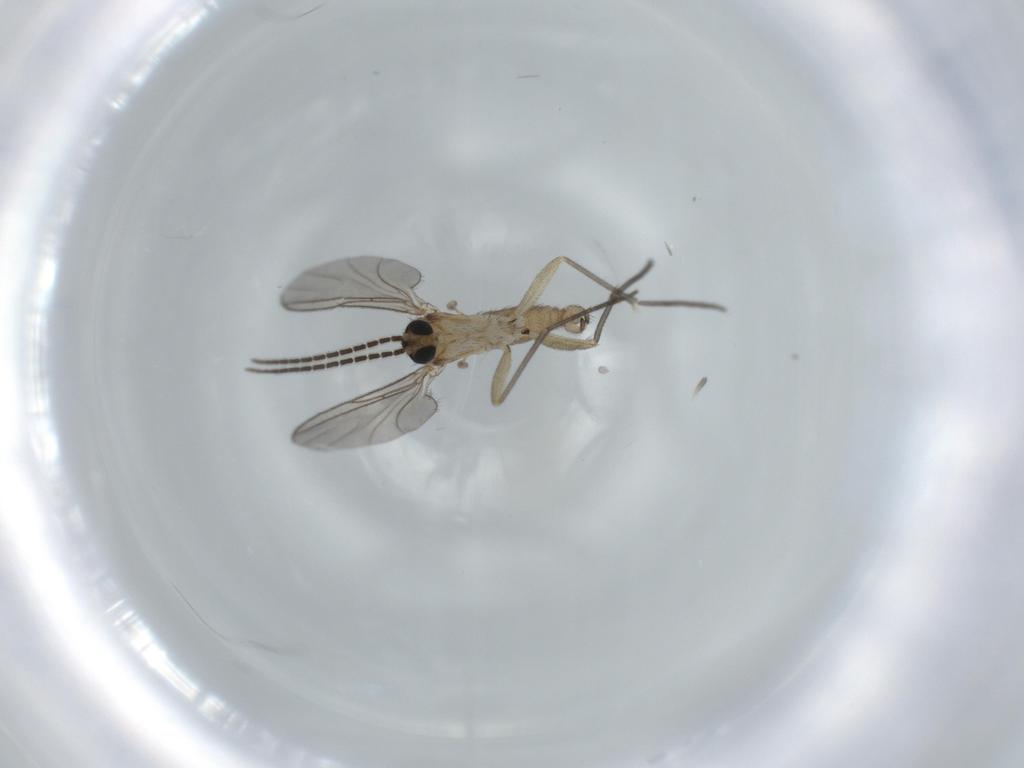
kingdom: Animalia
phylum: Arthropoda
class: Insecta
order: Diptera
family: Sciaridae
